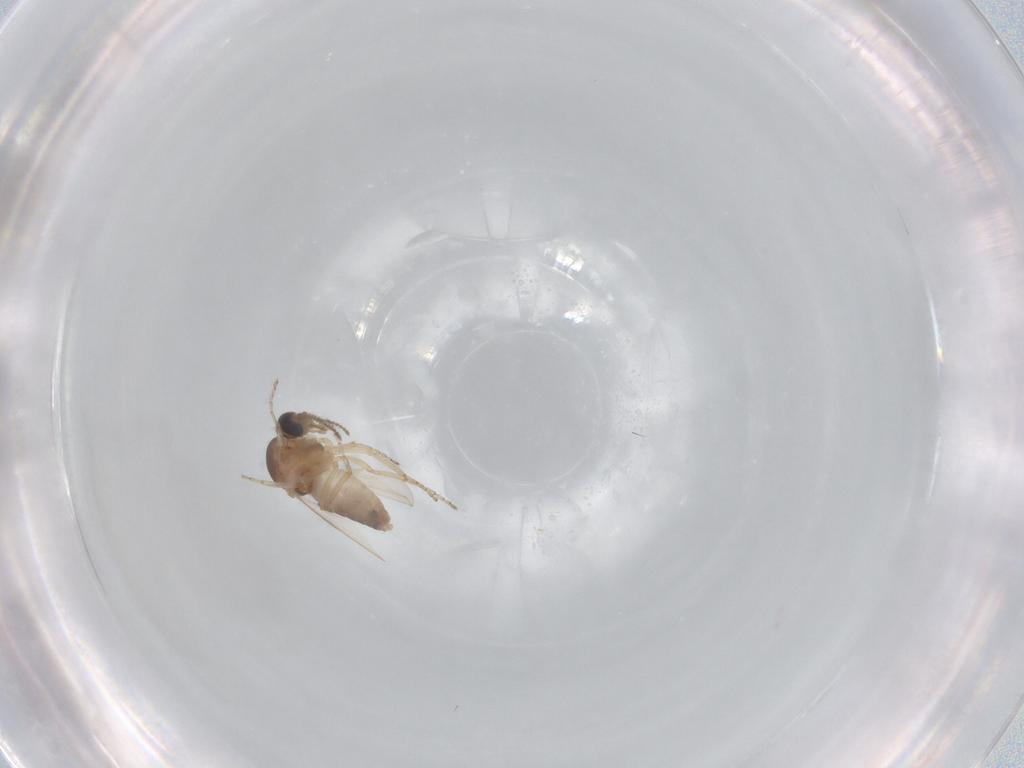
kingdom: Animalia
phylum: Arthropoda
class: Insecta
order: Diptera
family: Ceratopogonidae
